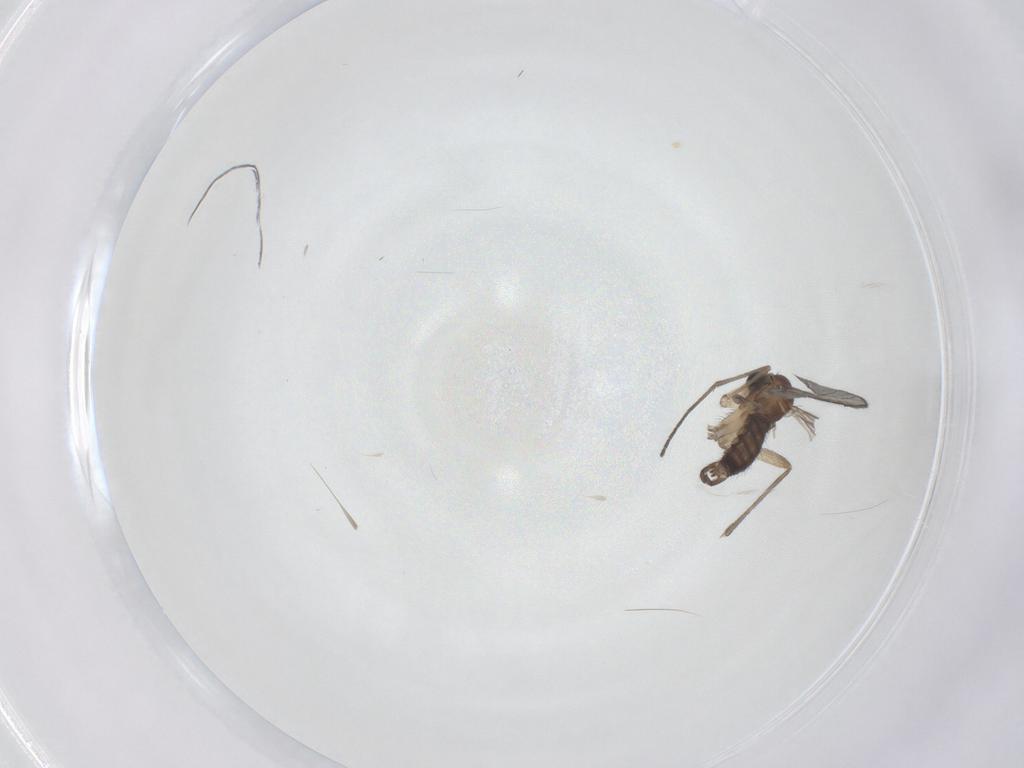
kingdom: Animalia
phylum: Arthropoda
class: Insecta
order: Diptera
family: Sciaridae
